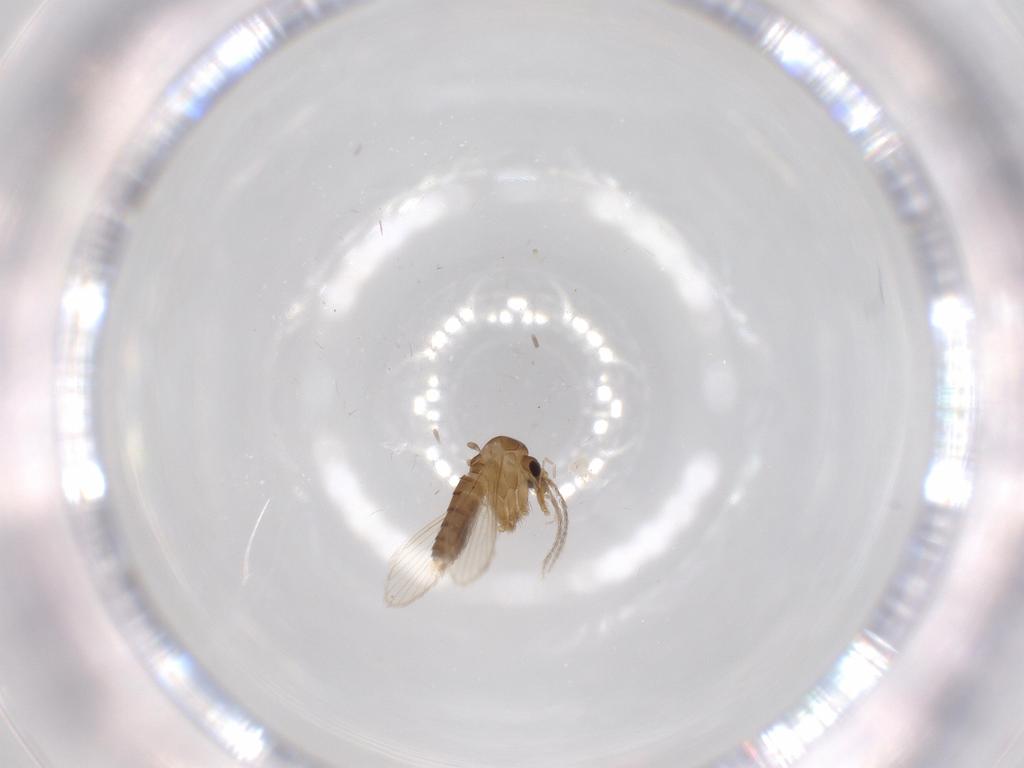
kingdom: Animalia
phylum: Arthropoda
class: Insecta
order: Diptera
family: Psychodidae
